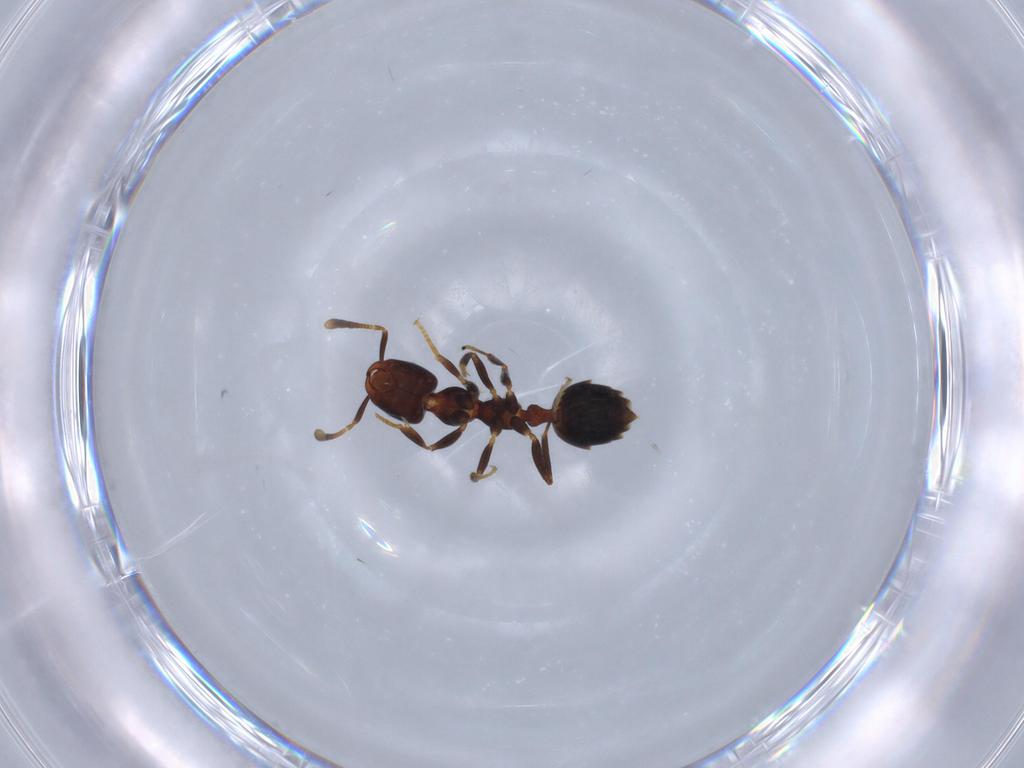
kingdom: Animalia
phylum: Arthropoda
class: Insecta
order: Hymenoptera
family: Formicidae
